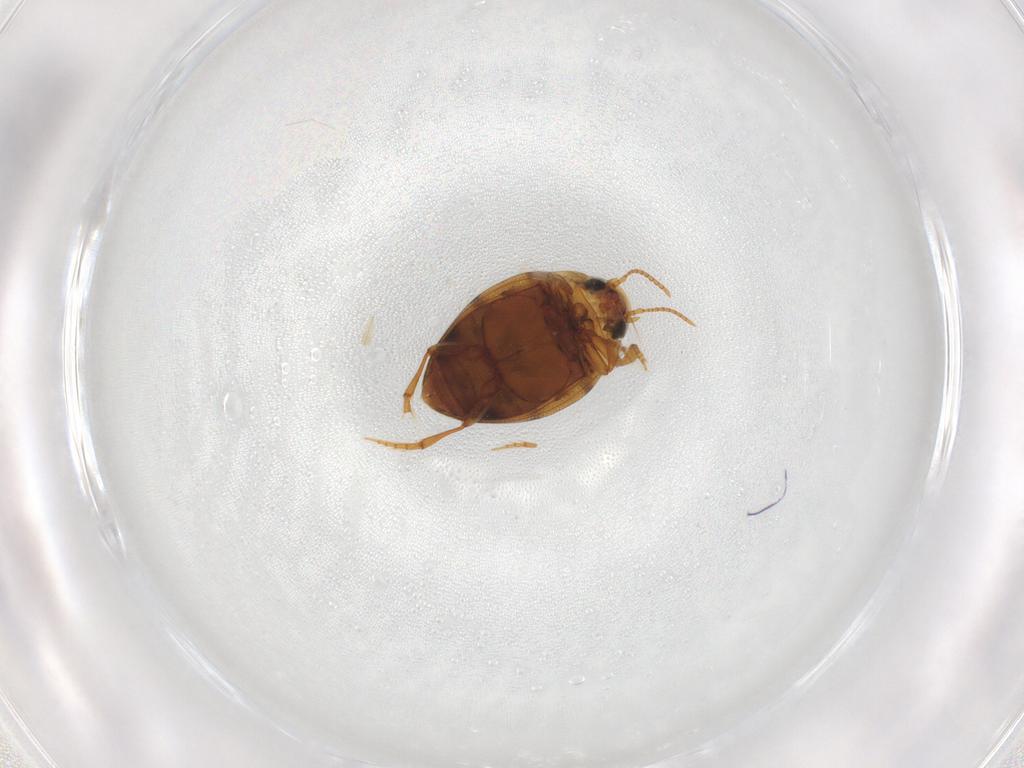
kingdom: Animalia
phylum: Arthropoda
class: Insecta
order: Coleoptera
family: Dytiscidae
